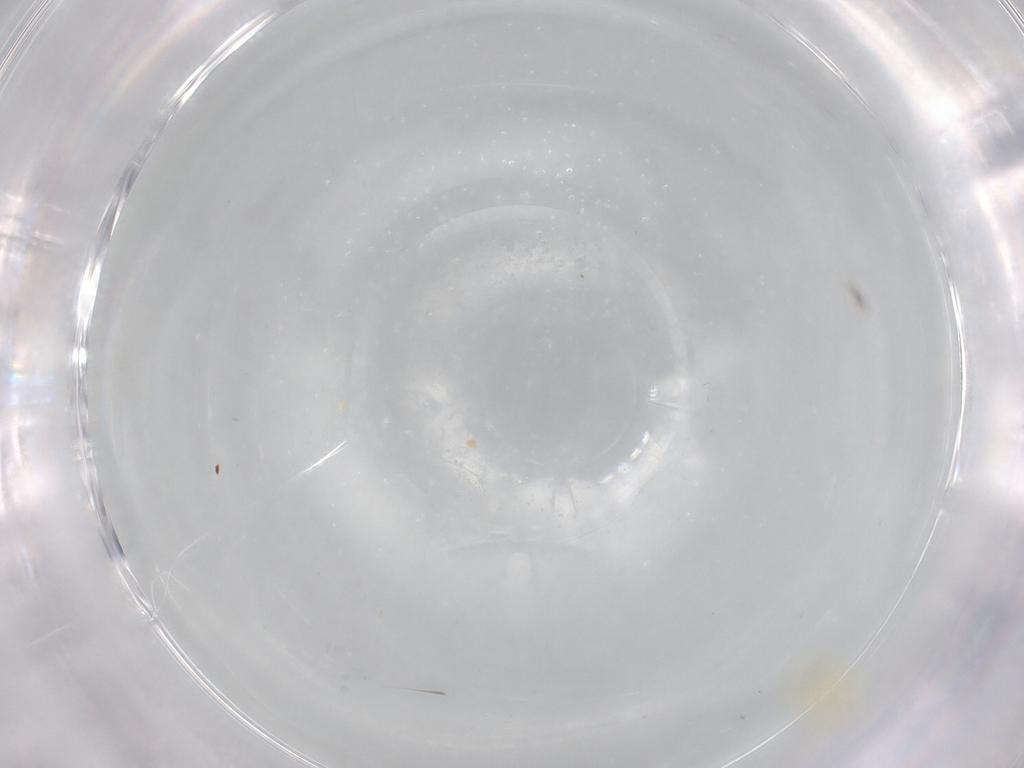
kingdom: Animalia
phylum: Arthropoda
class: Insecta
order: Hemiptera
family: Aleyrodidae
